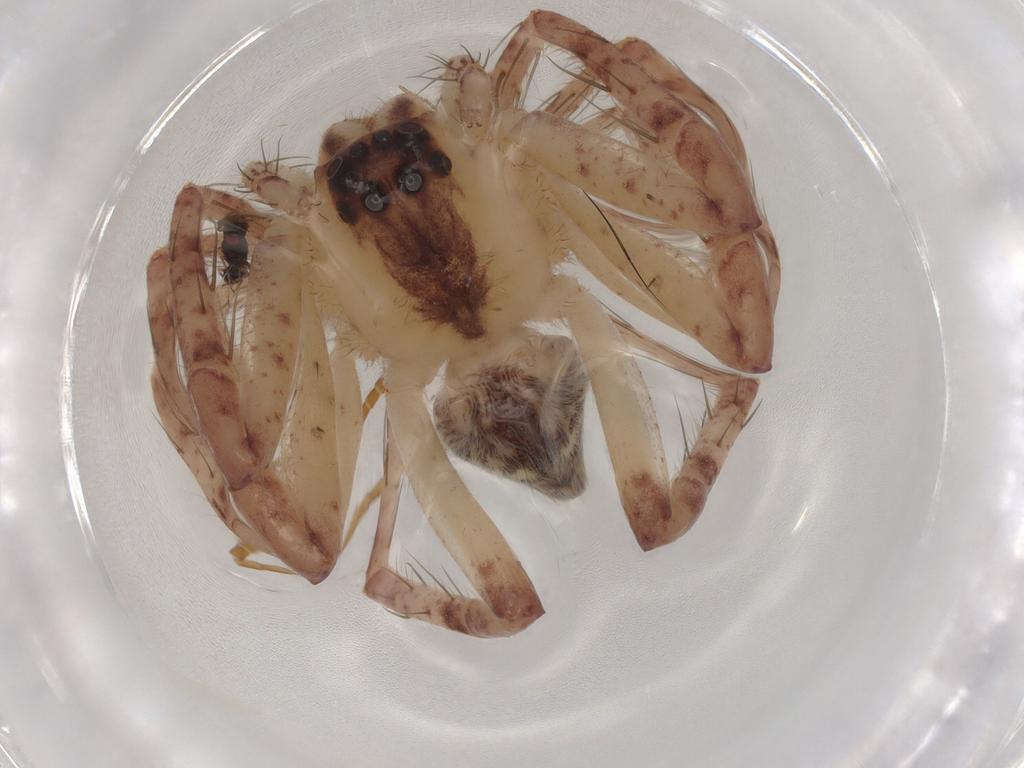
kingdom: Animalia
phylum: Arthropoda
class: Arachnida
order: Araneae
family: Sparassidae
